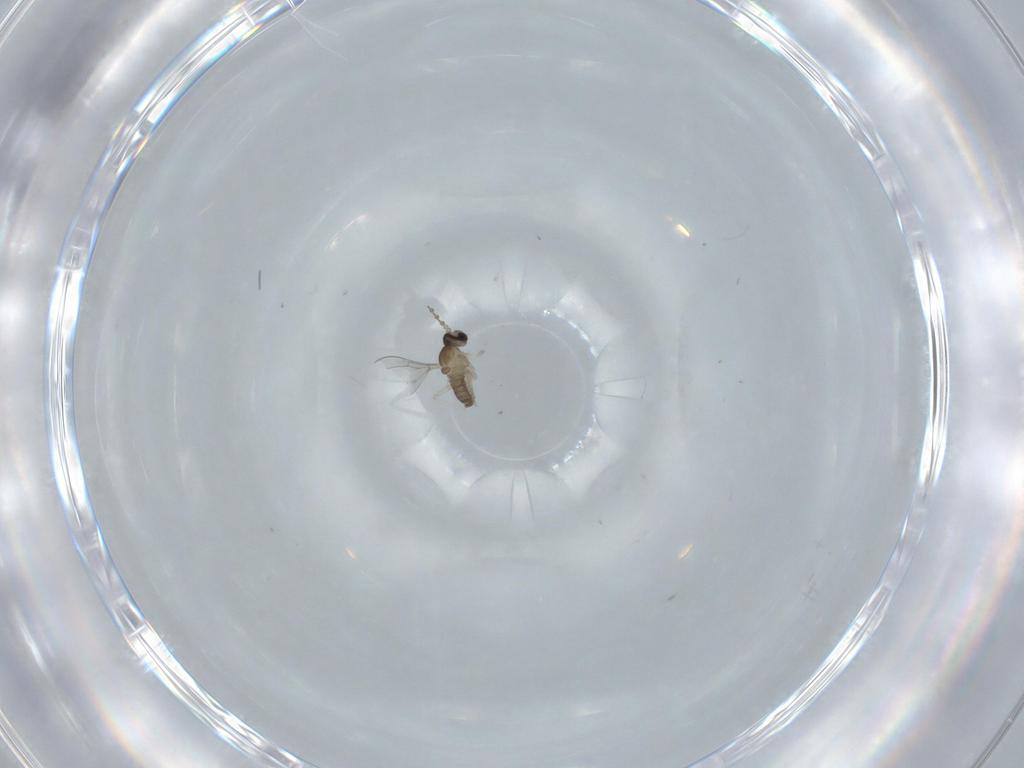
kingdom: Animalia
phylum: Arthropoda
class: Insecta
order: Diptera
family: Cecidomyiidae
